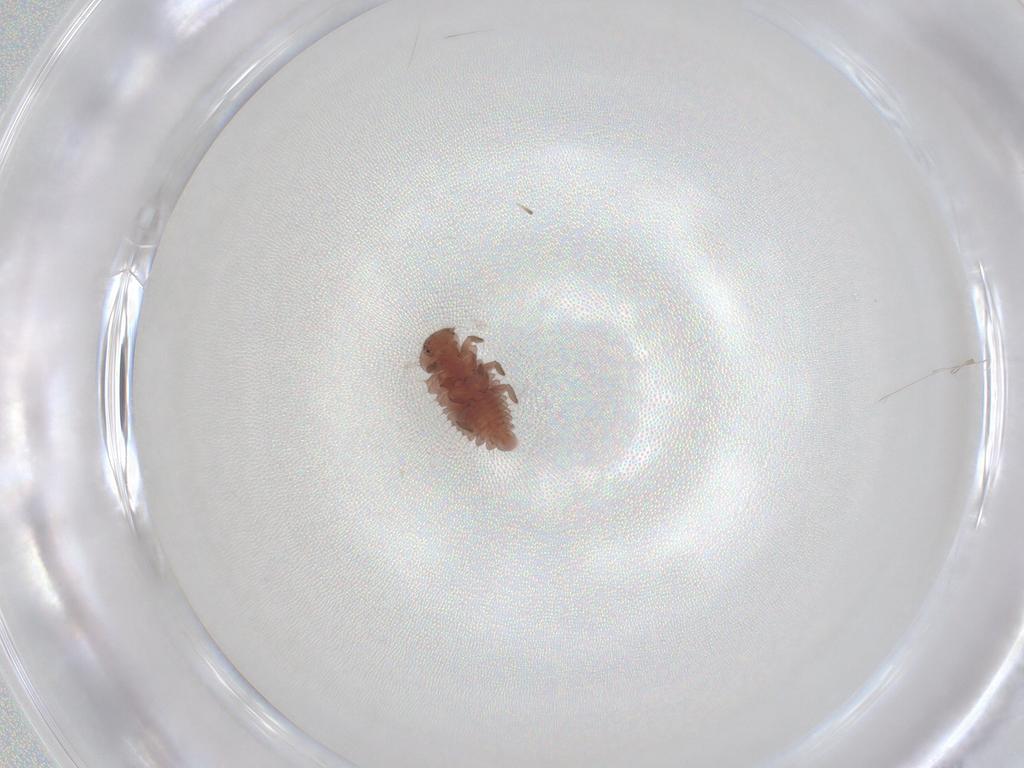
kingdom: Animalia
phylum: Arthropoda
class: Insecta
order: Coleoptera
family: Coccinellidae
